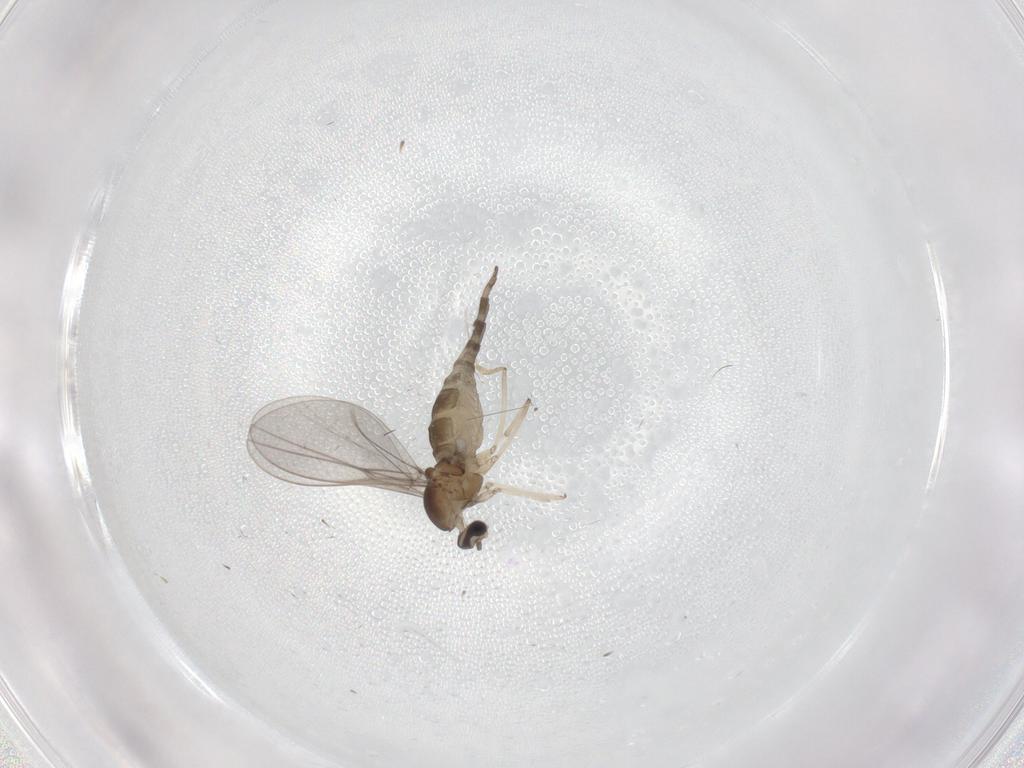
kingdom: Animalia
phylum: Arthropoda
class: Insecta
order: Diptera
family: Cecidomyiidae
